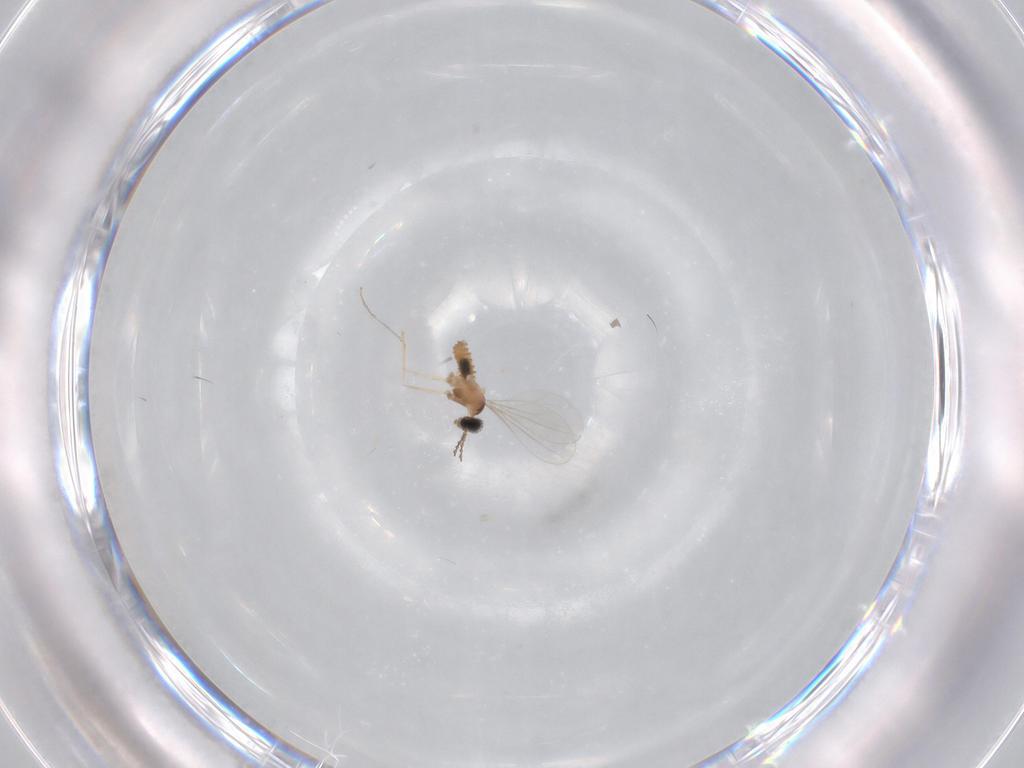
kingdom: Animalia
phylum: Arthropoda
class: Insecta
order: Diptera
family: Cecidomyiidae
